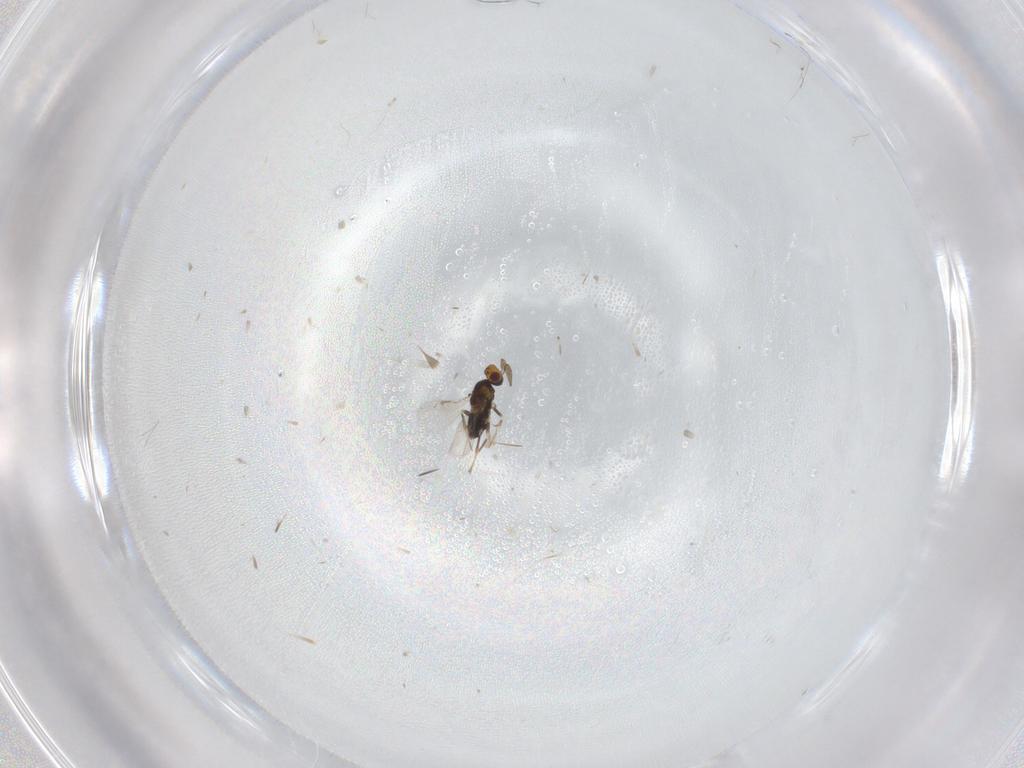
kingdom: Animalia
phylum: Arthropoda
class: Insecta
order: Hymenoptera
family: Aphelinidae
